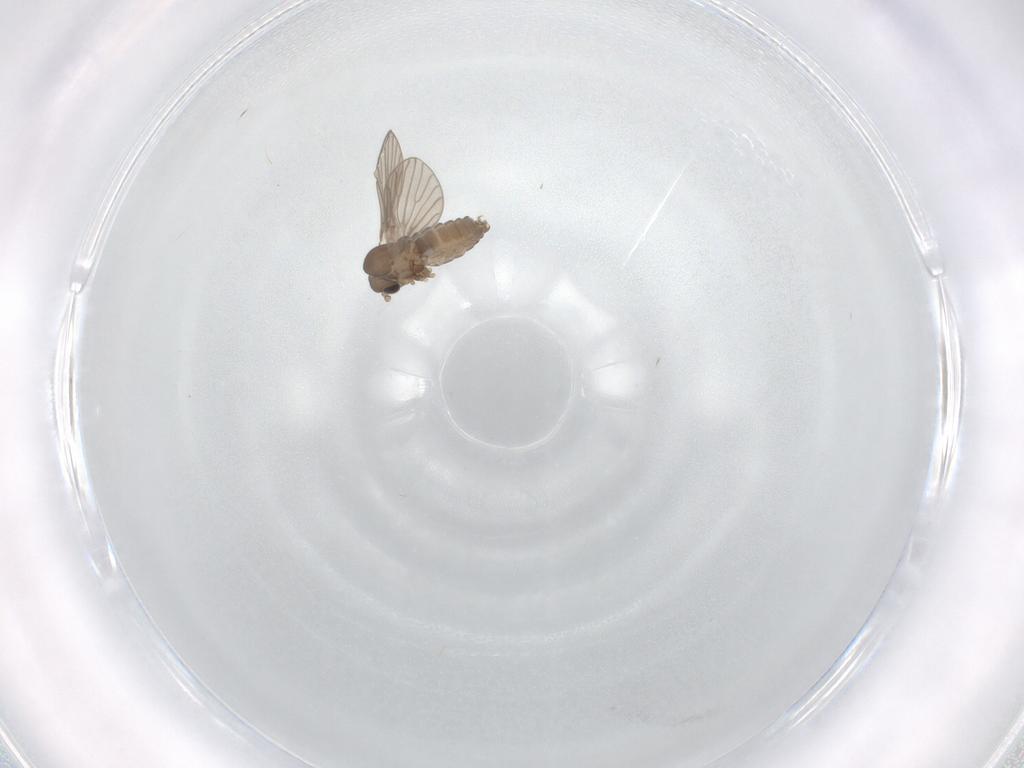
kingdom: Animalia
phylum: Arthropoda
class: Insecta
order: Diptera
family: Psychodidae
